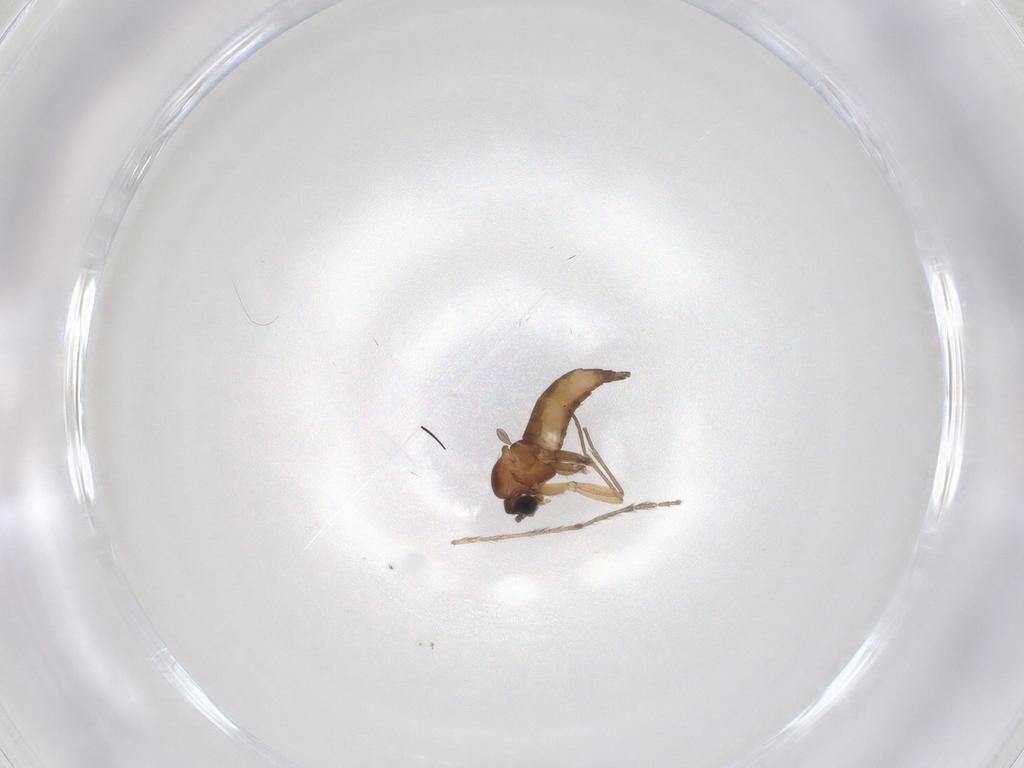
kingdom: Animalia
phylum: Arthropoda
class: Insecta
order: Diptera
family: Sciaridae
